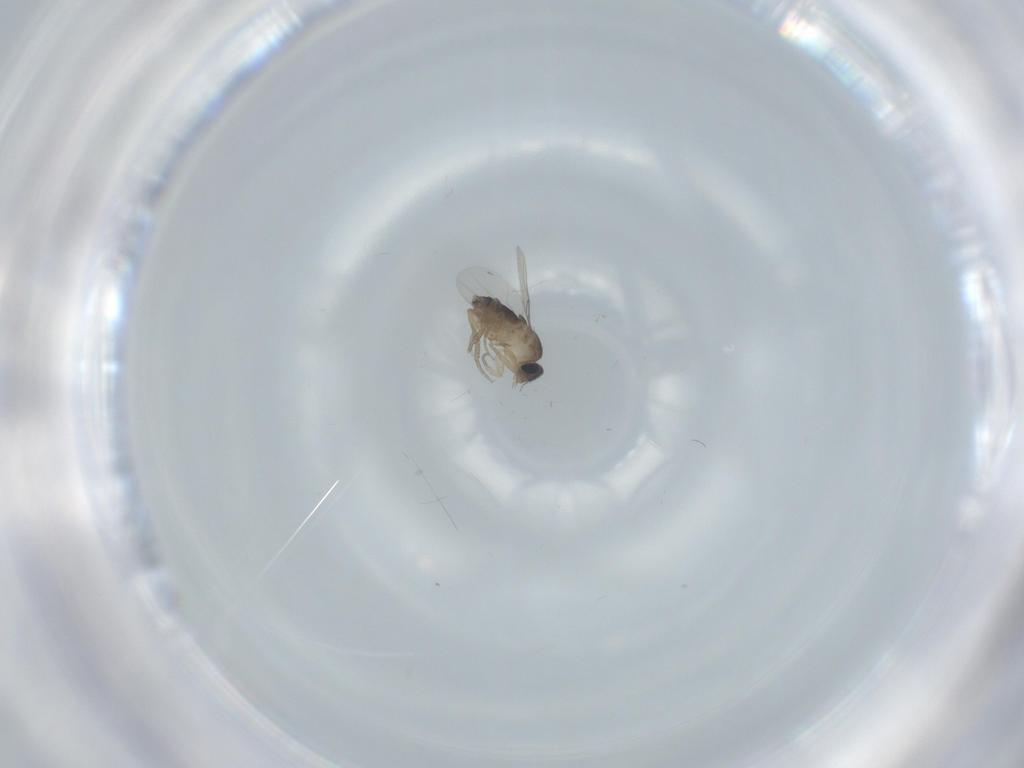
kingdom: Animalia
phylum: Arthropoda
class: Insecta
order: Diptera
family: Phoridae
